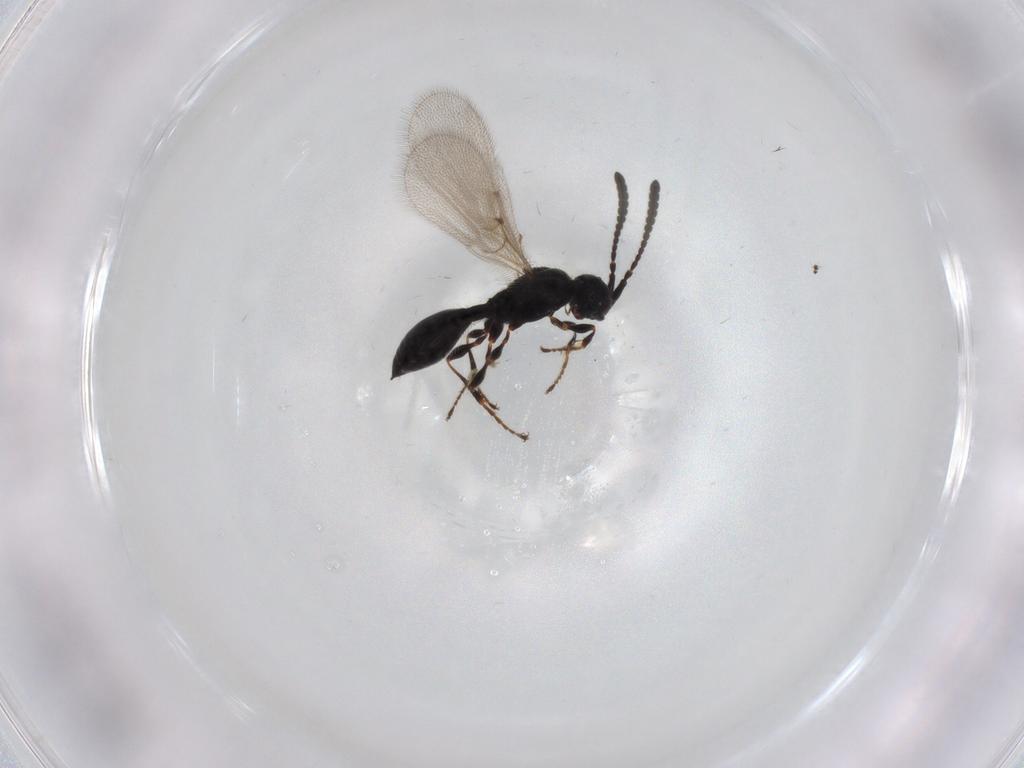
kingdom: Animalia
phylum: Arthropoda
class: Insecta
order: Hymenoptera
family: Diapriidae
